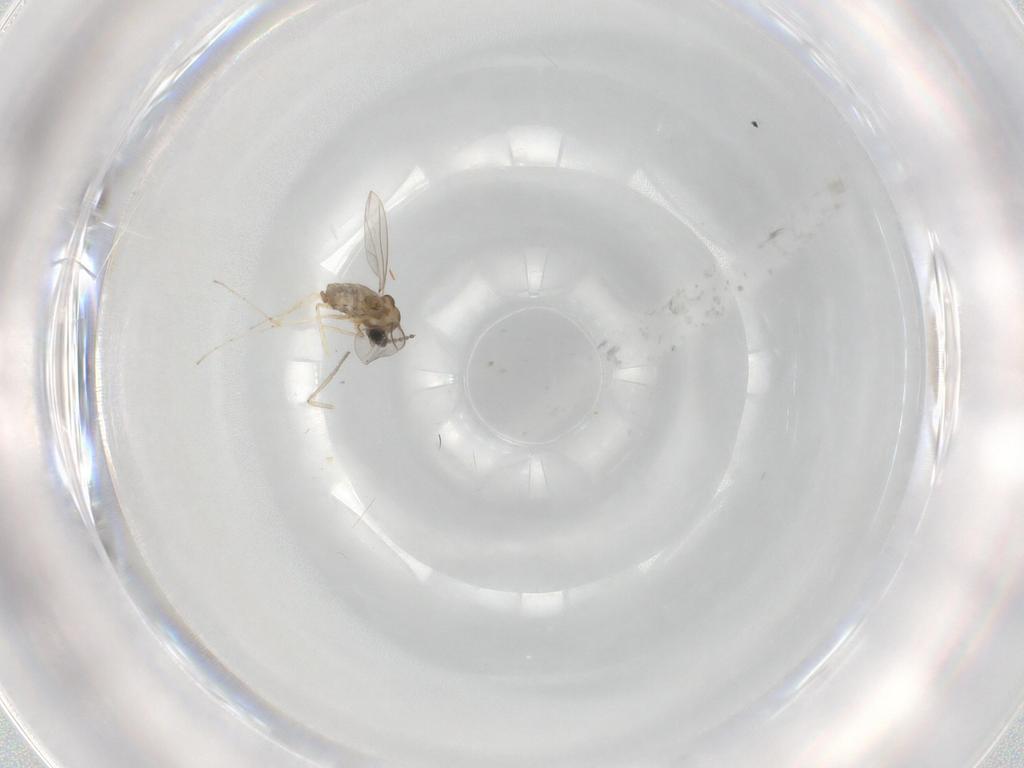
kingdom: Animalia
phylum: Arthropoda
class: Insecta
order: Diptera
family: Cecidomyiidae
